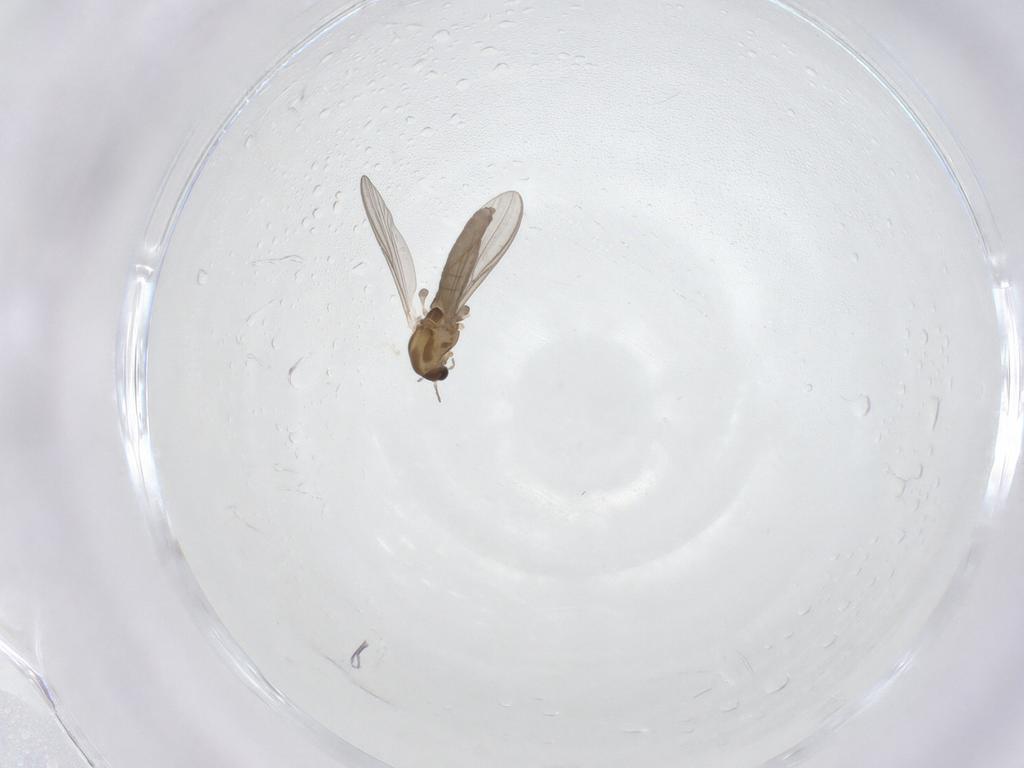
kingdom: Animalia
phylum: Arthropoda
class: Insecta
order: Diptera
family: Chironomidae
